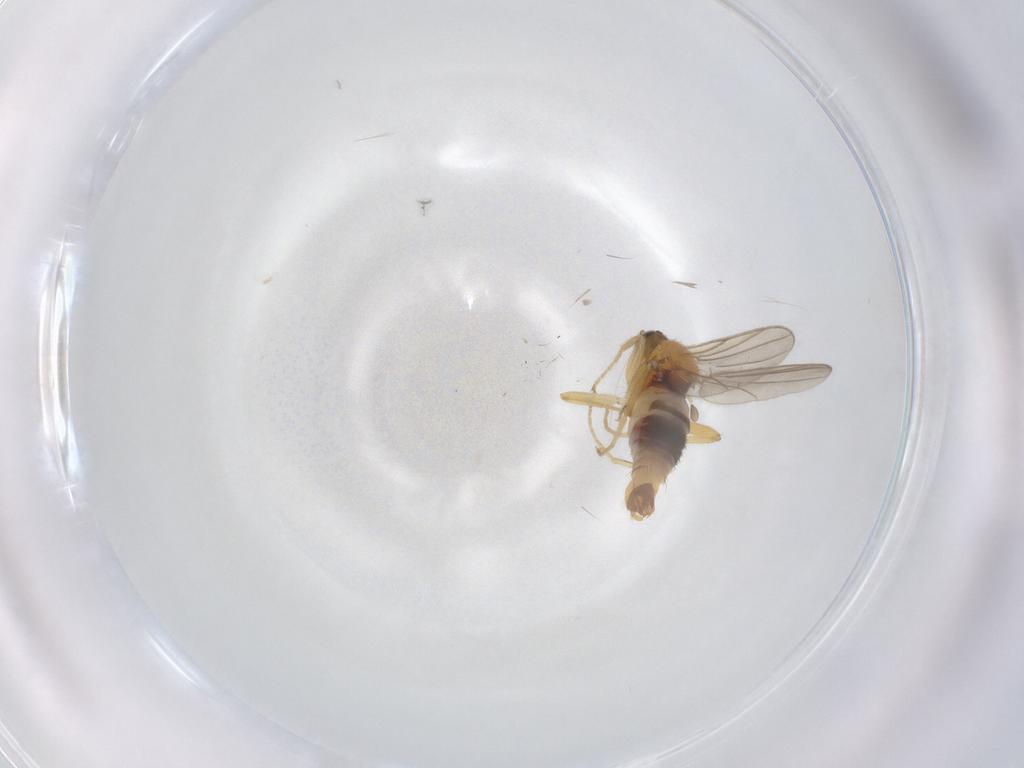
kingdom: Animalia
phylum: Arthropoda
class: Insecta
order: Diptera
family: Hybotidae
